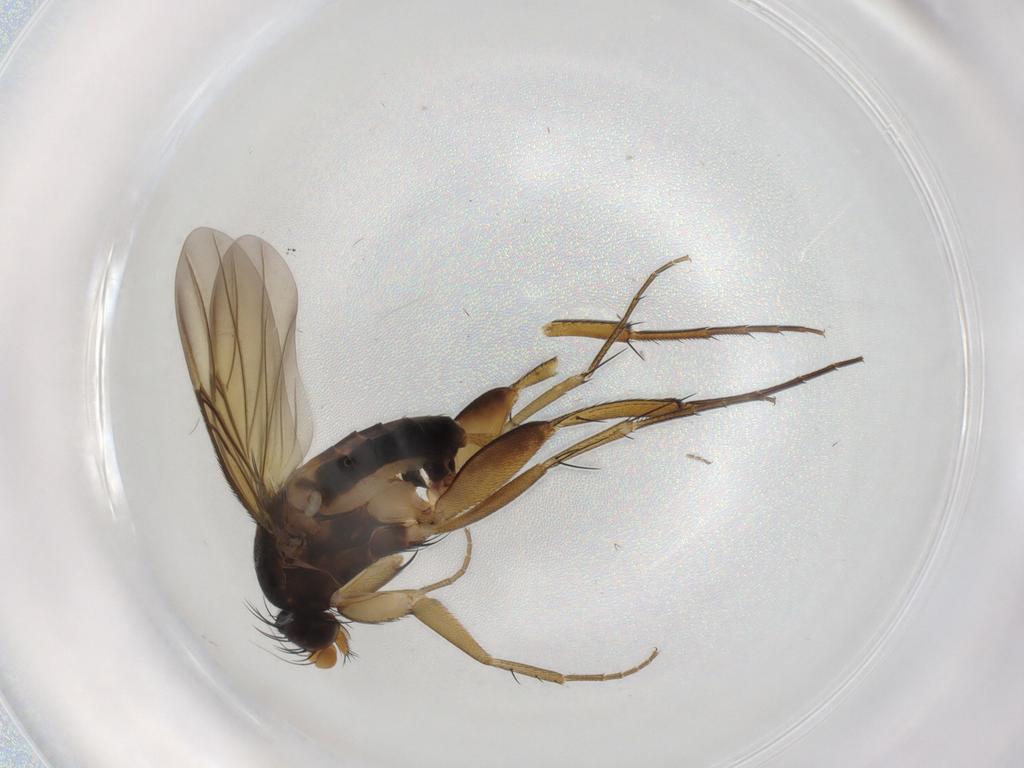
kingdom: Animalia
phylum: Arthropoda
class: Insecta
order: Diptera
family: Phoridae
